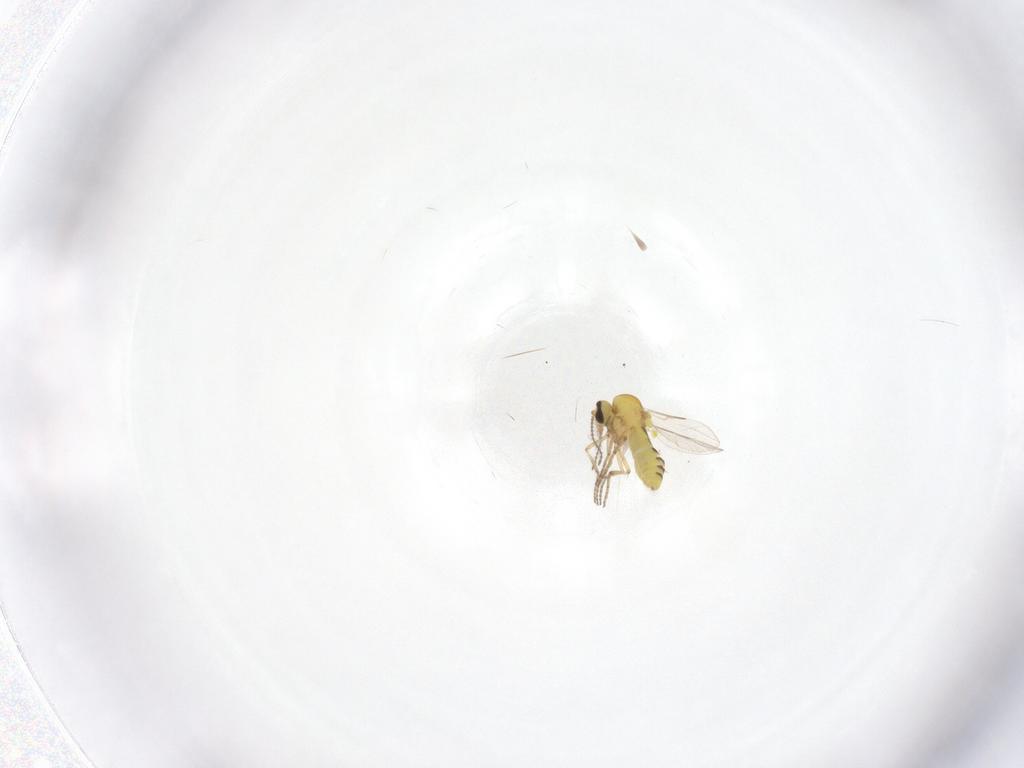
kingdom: Animalia
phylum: Arthropoda
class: Insecta
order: Diptera
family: Ceratopogonidae
